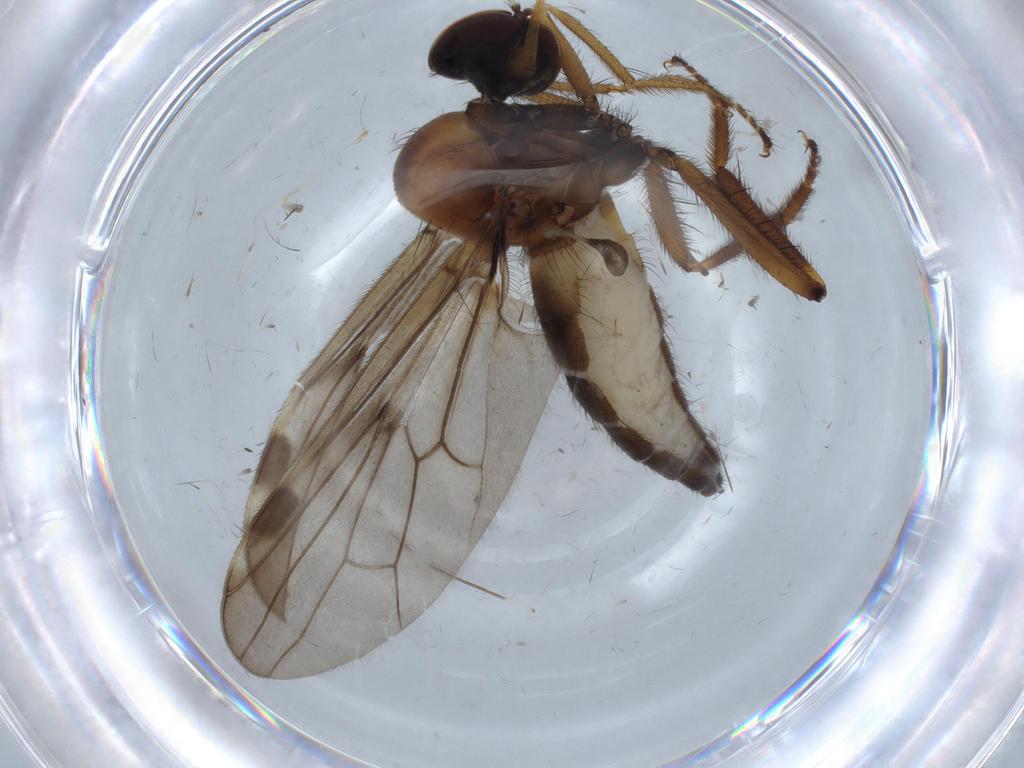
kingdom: Animalia
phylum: Arthropoda
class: Insecta
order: Diptera
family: Hybotidae
